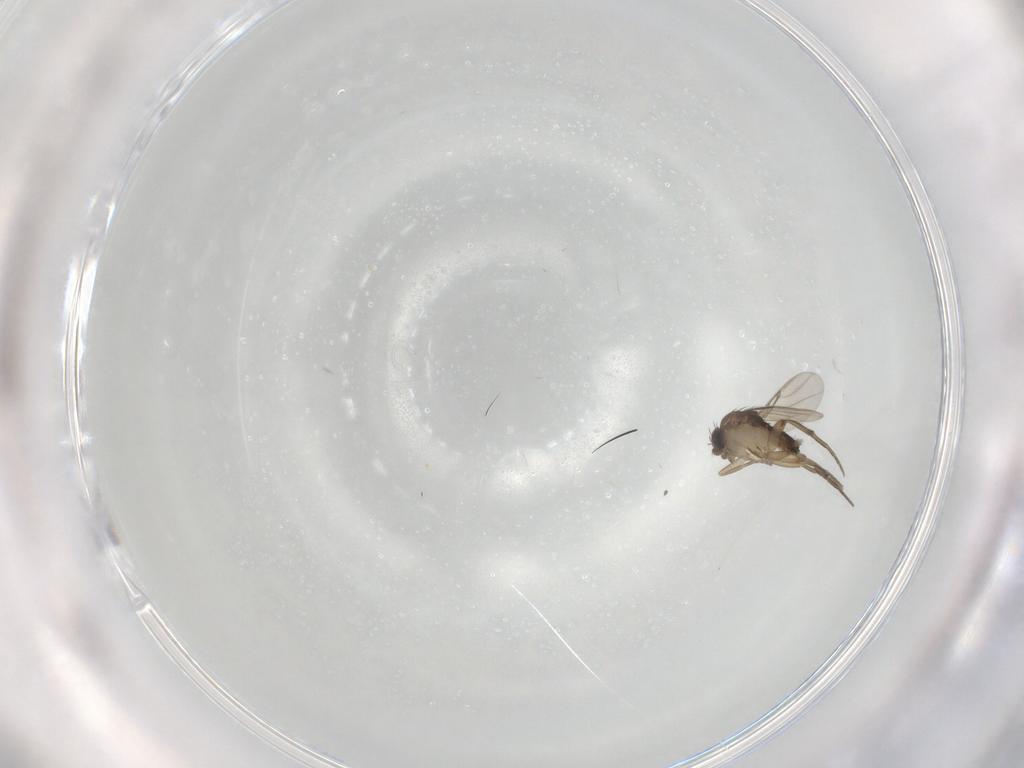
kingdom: Animalia
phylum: Arthropoda
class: Insecta
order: Diptera
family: Phoridae
